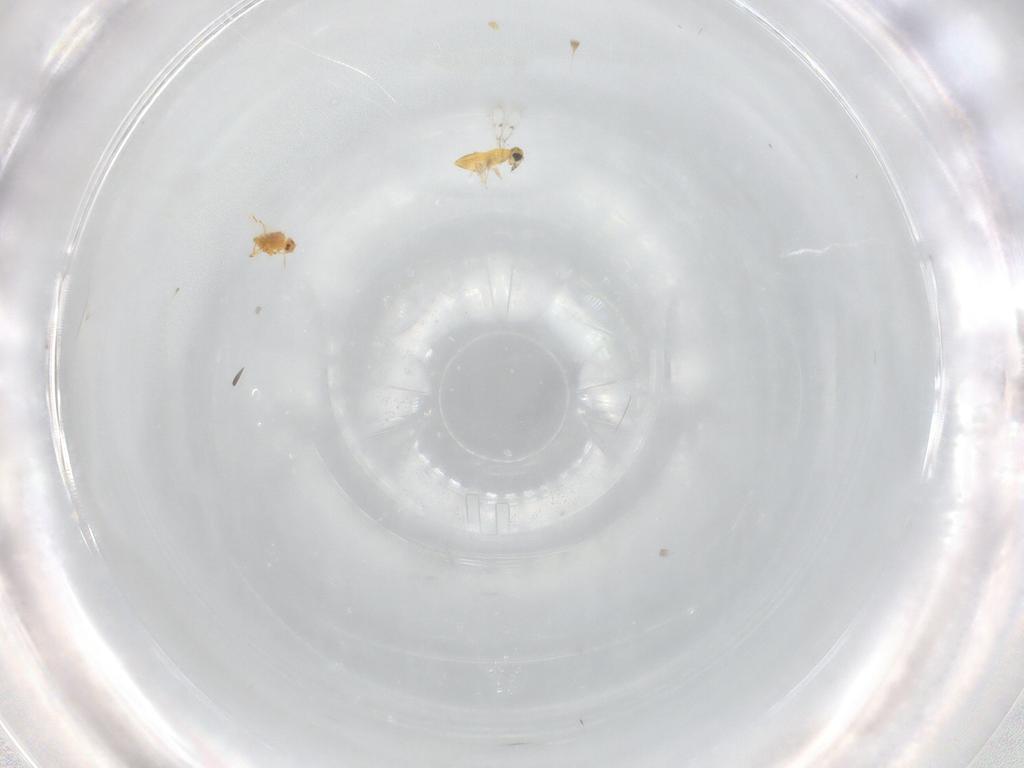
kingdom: Animalia
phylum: Arthropoda
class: Insecta
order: Hymenoptera
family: Trichogrammatidae
